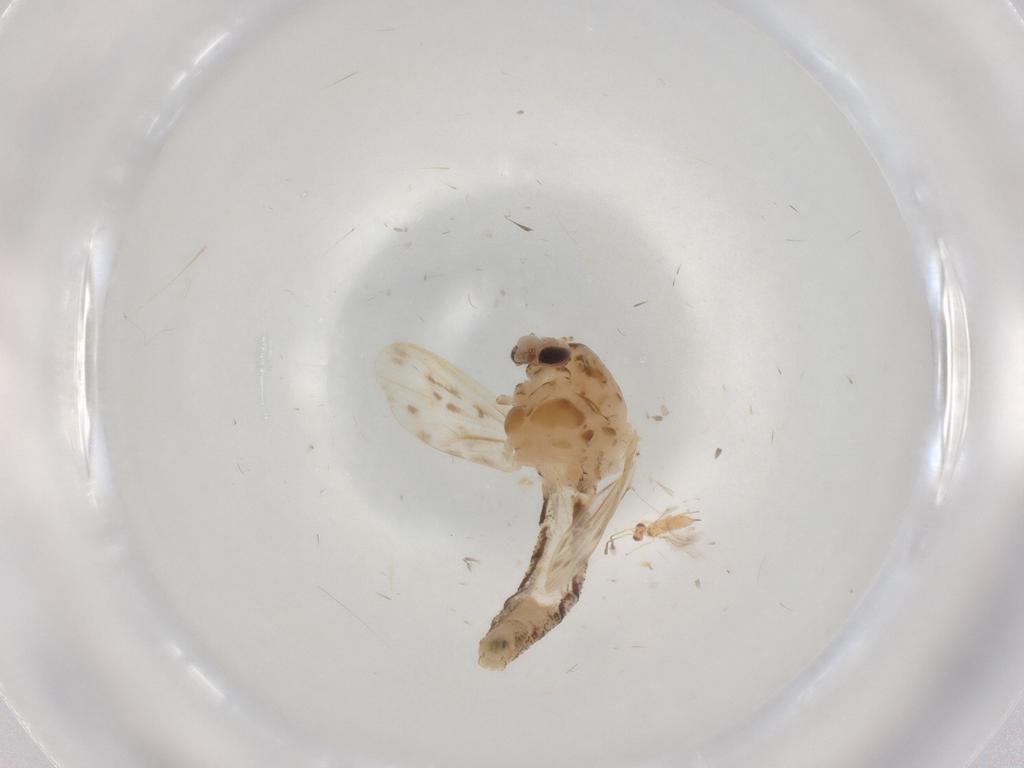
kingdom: Animalia
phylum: Arthropoda
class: Insecta
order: Diptera
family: Chaoboridae
